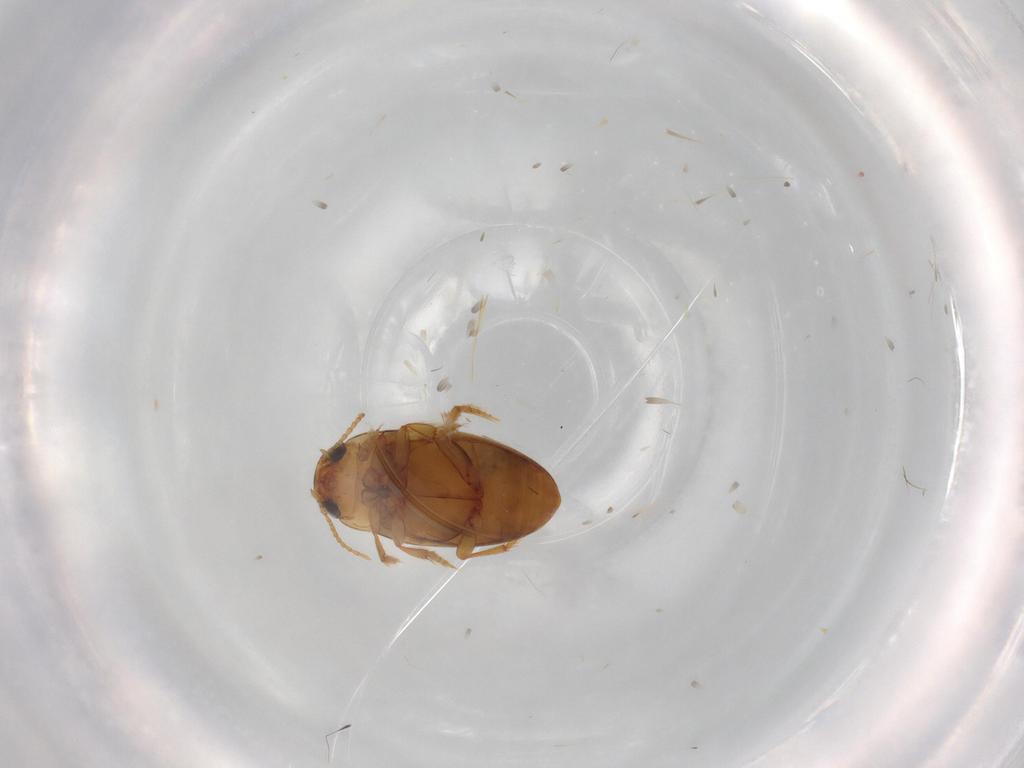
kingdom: Animalia
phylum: Arthropoda
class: Insecta
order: Coleoptera
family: Dytiscidae
